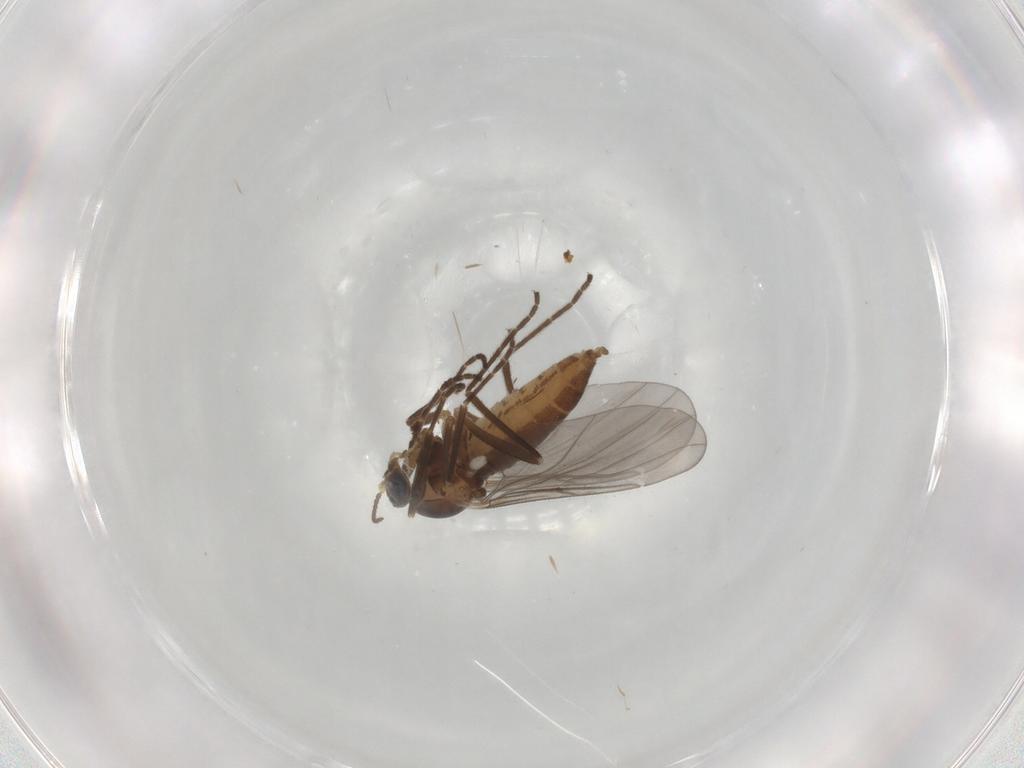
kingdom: Animalia
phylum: Arthropoda
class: Insecta
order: Diptera
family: Cecidomyiidae
